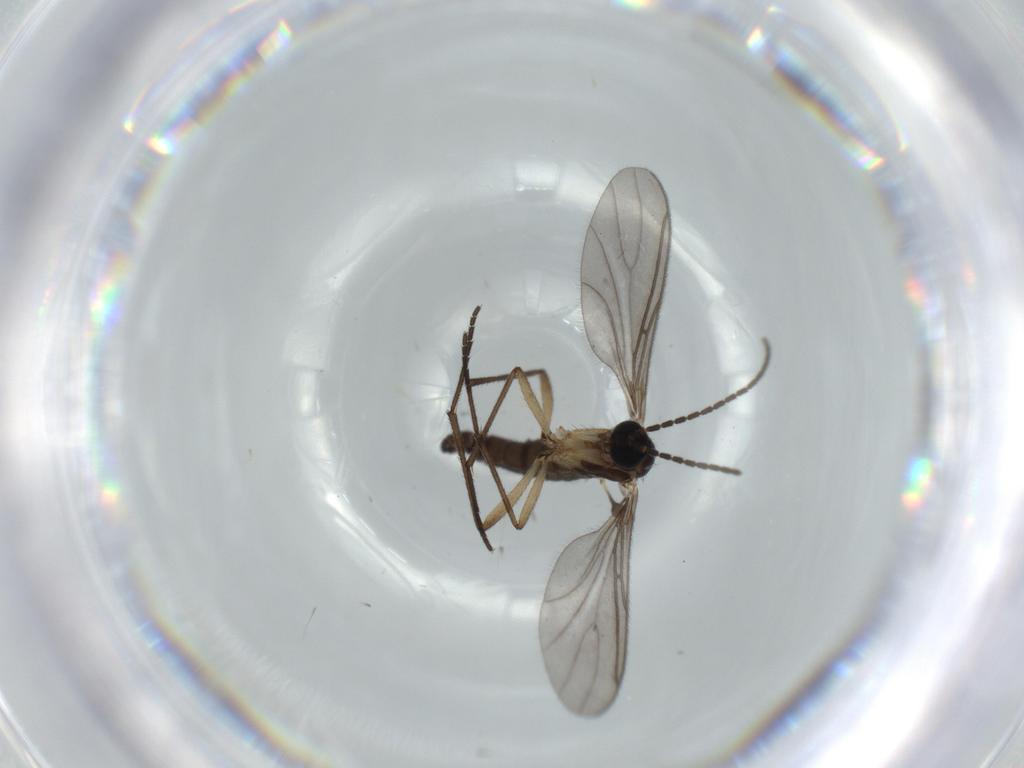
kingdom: Animalia
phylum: Arthropoda
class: Insecta
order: Diptera
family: Sciaridae
